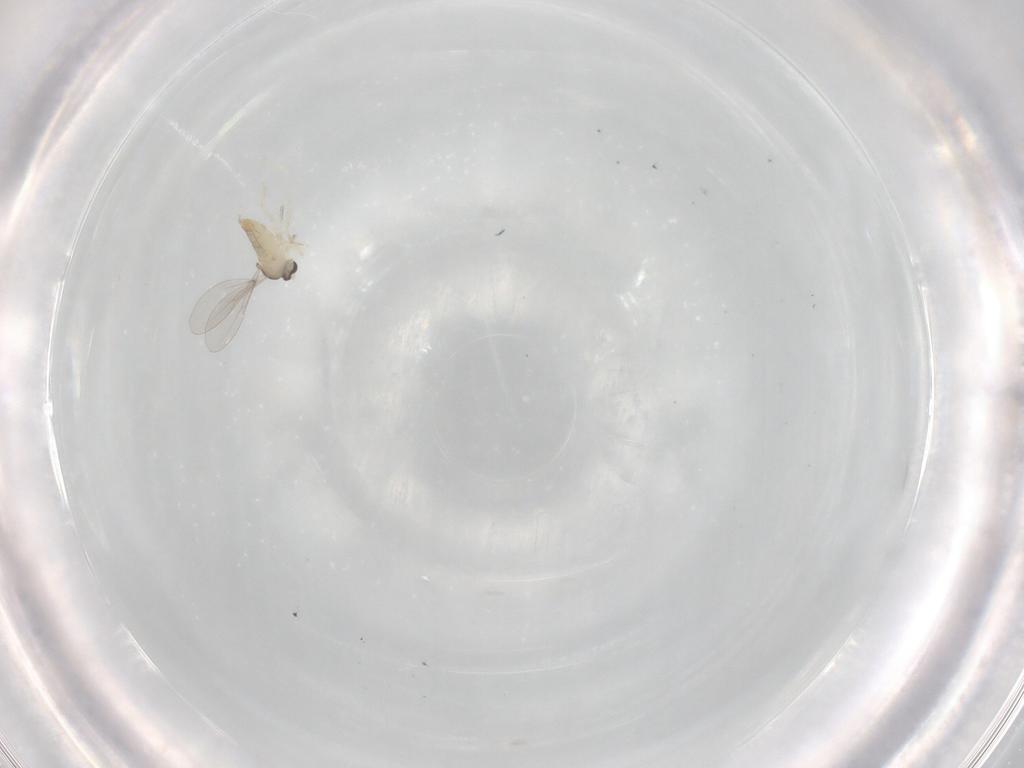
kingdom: Animalia
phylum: Arthropoda
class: Insecta
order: Diptera
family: Cecidomyiidae
